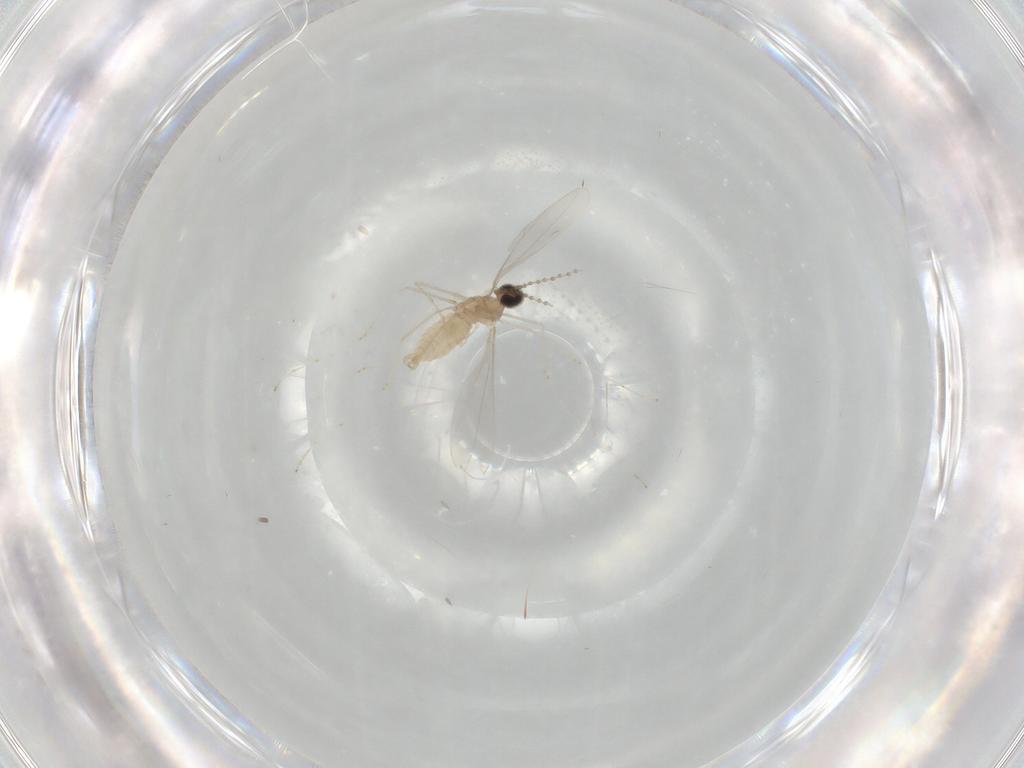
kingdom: Animalia
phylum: Arthropoda
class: Insecta
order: Diptera
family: Cecidomyiidae
